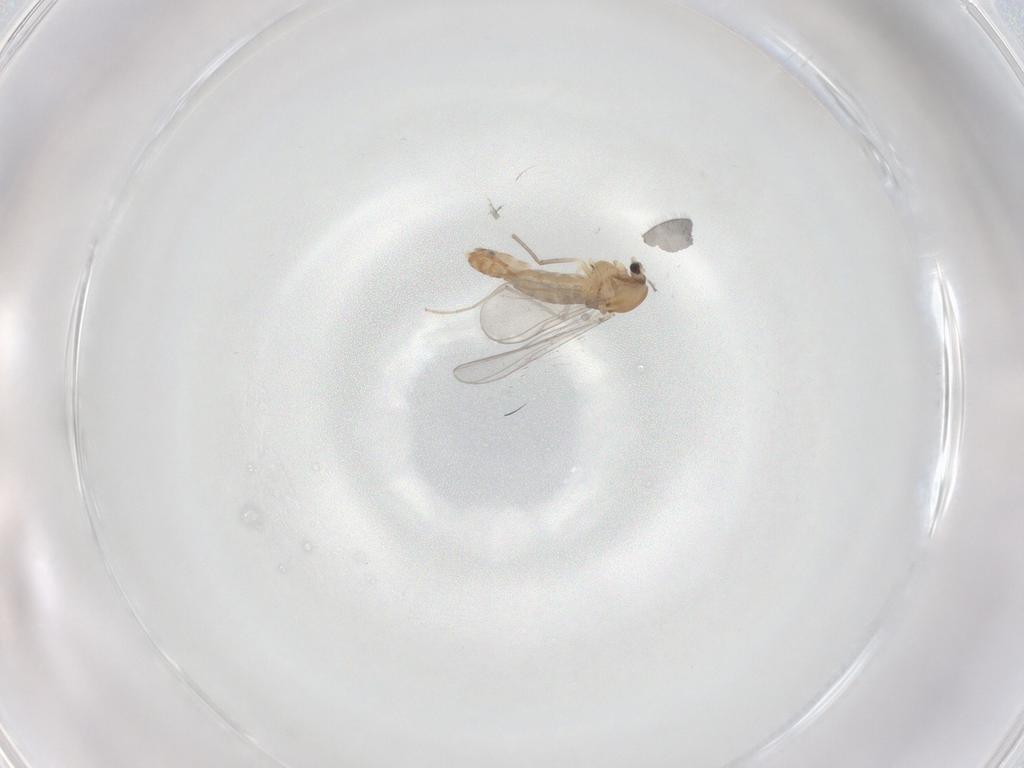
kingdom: Animalia
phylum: Arthropoda
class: Insecta
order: Diptera
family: Chironomidae
